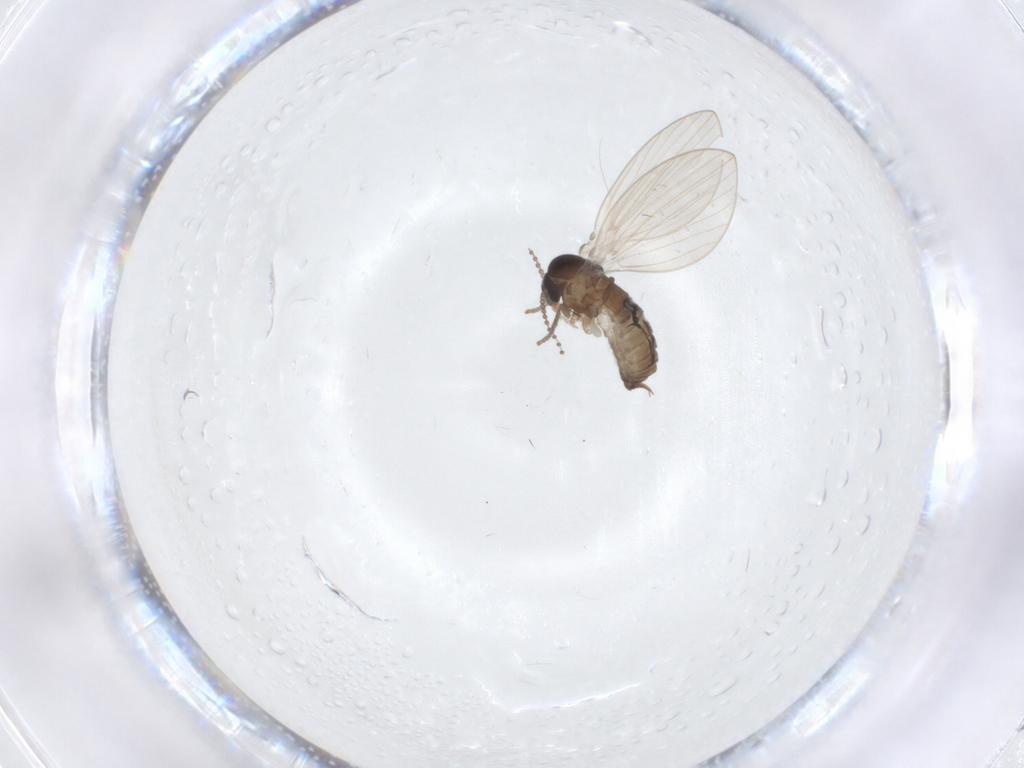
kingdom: Animalia
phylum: Arthropoda
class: Insecta
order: Diptera
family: Psychodidae
